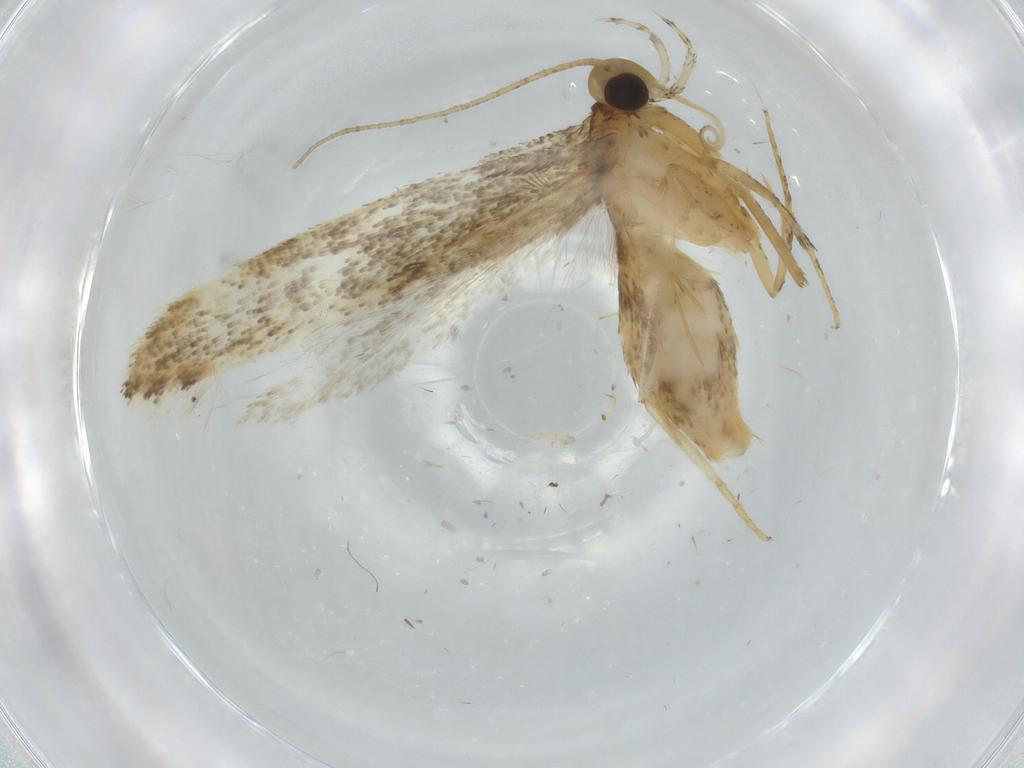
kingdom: Animalia
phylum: Arthropoda
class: Insecta
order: Lepidoptera
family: Gelechiidae
